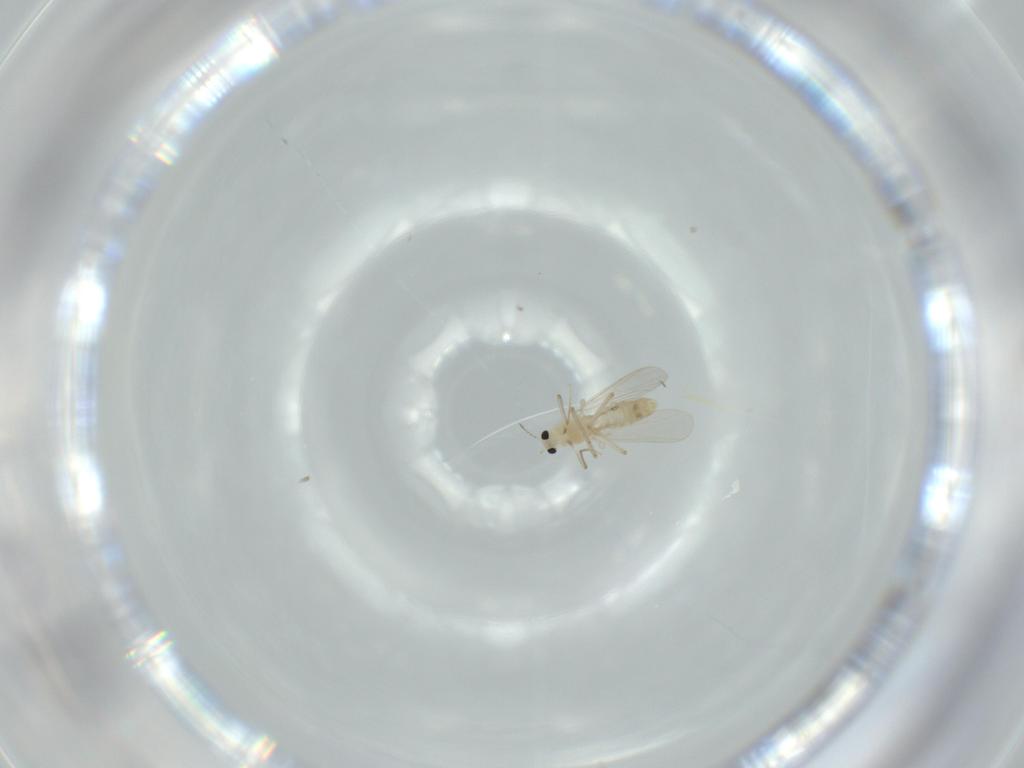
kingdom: Animalia
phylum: Arthropoda
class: Insecta
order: Diptera
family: Chironomidae
